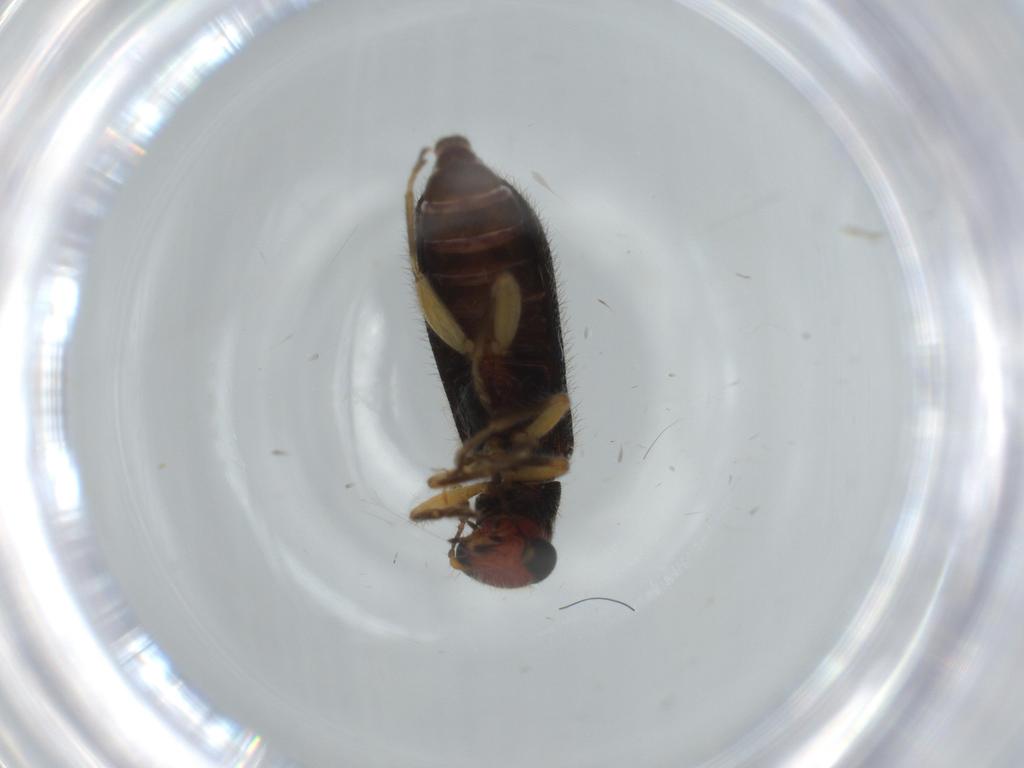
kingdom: Animalia
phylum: Arthropoda
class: Insecta
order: Coleoptera
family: Cleridae
